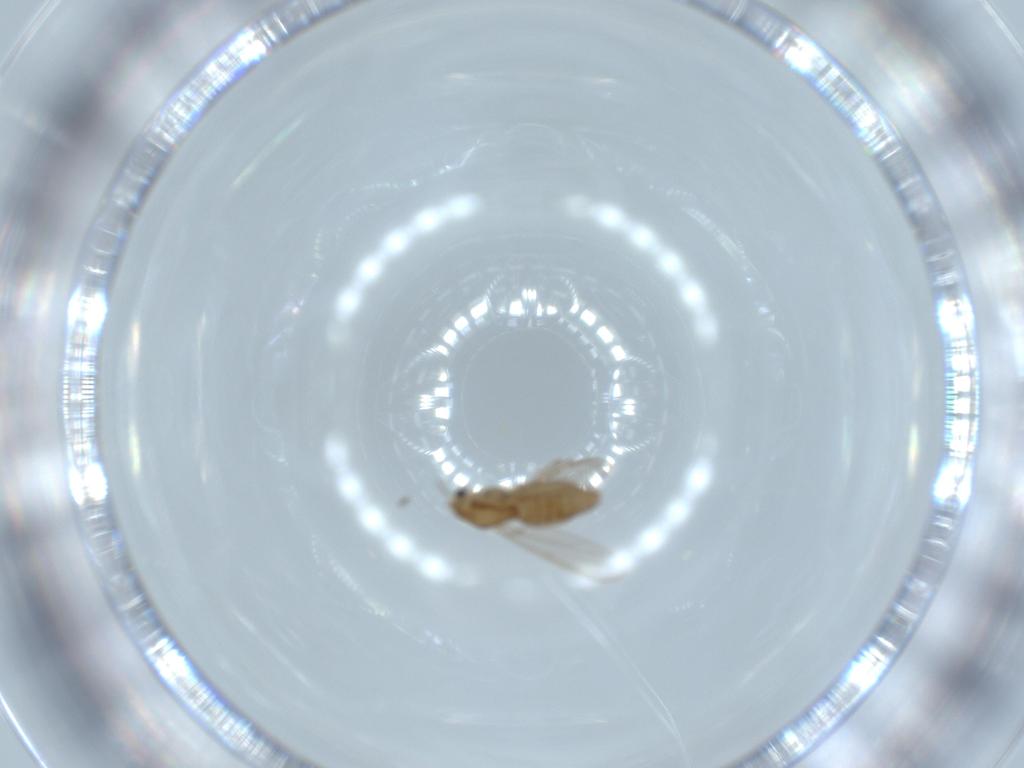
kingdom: Animalia
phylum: Arthropoda
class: Insecta
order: Diptera
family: Chironomidae
